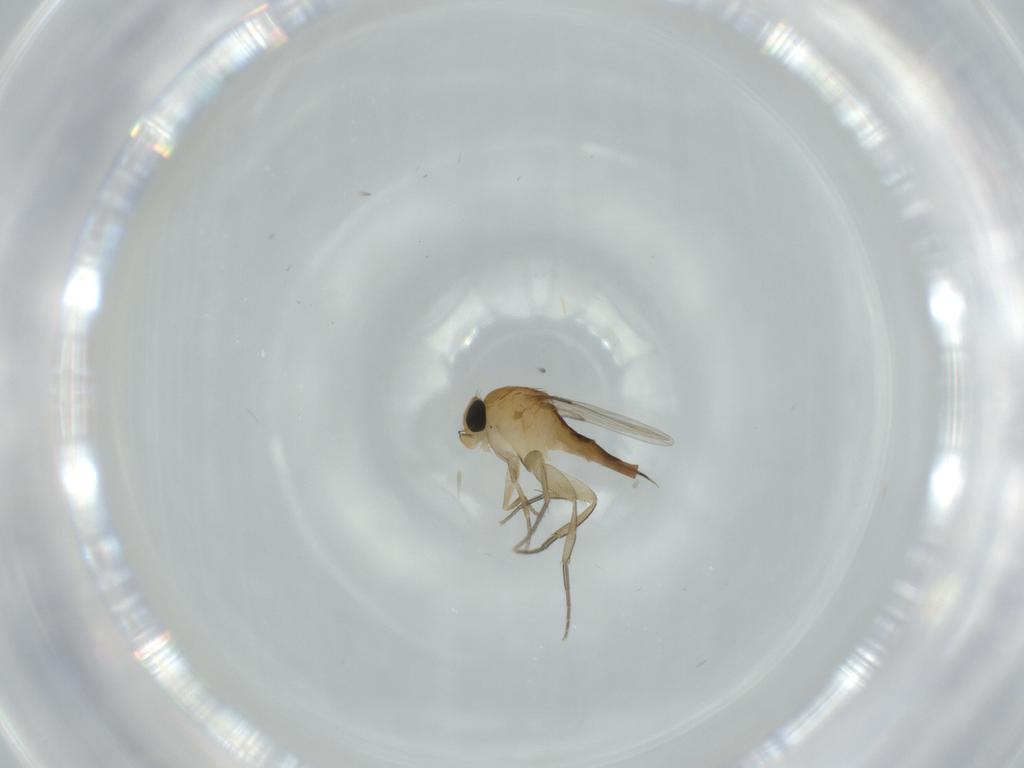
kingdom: Animalia
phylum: Arthropoda
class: Insecta
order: Diptera
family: Phoridae
